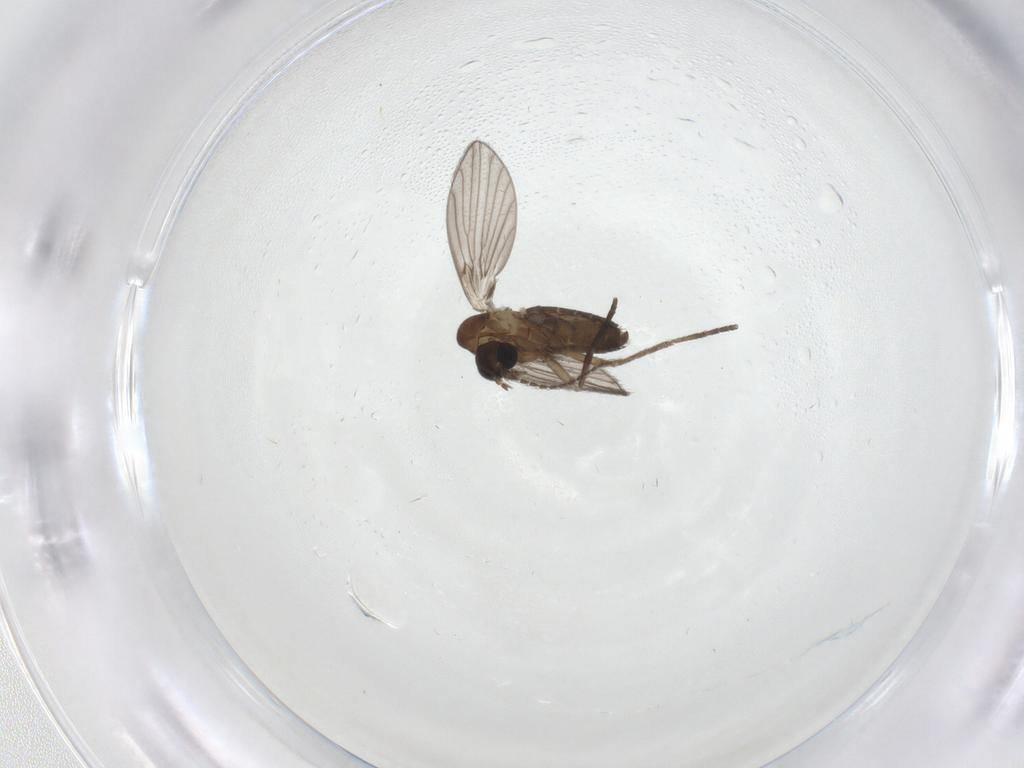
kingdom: Animalia
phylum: Arthropoda
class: Insecta
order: Diptera
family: Psychodidae
